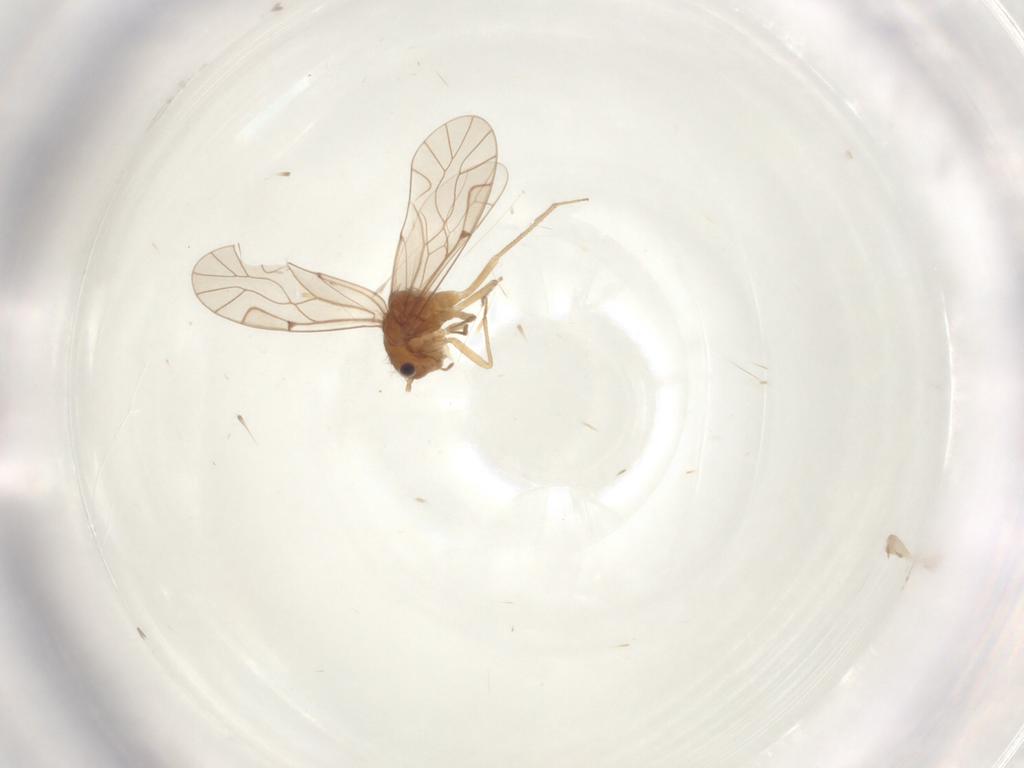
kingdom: Animalia
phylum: Arthropoda
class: Insecta
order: Psocodea
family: Lachesillidae
